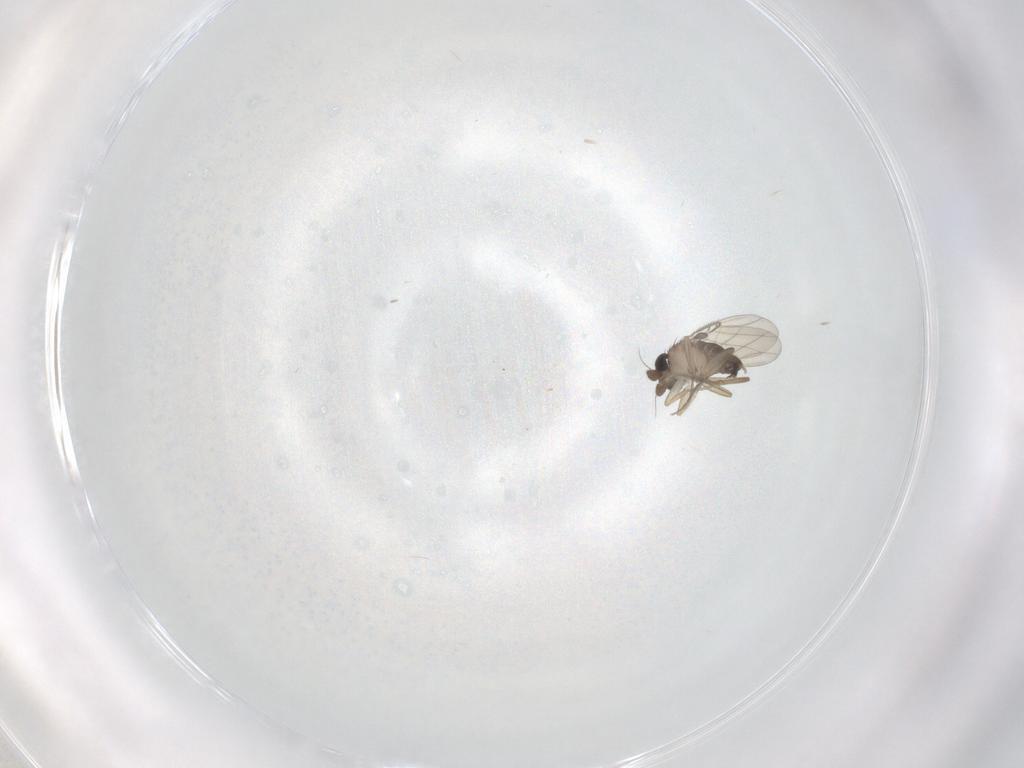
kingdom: Animalia
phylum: Arthropoda
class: Insecta
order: Diptera
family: Phoridae
